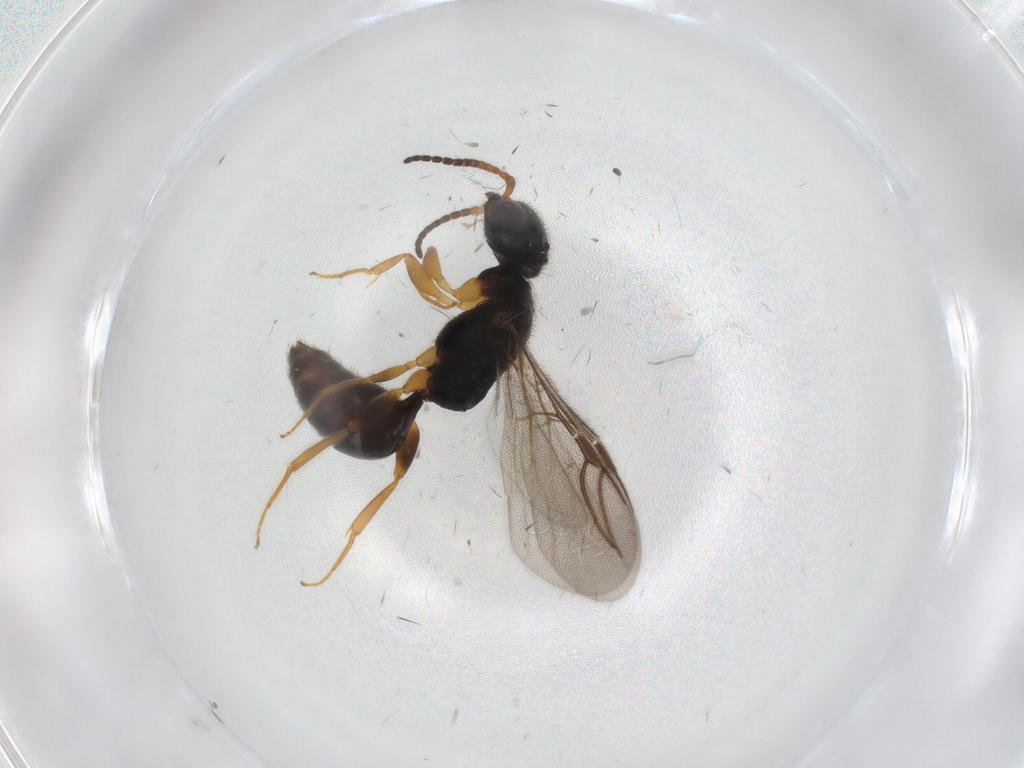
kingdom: Animalia
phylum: Arthropoda
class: Insecta
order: Hymenoptera
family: Bethylidae
